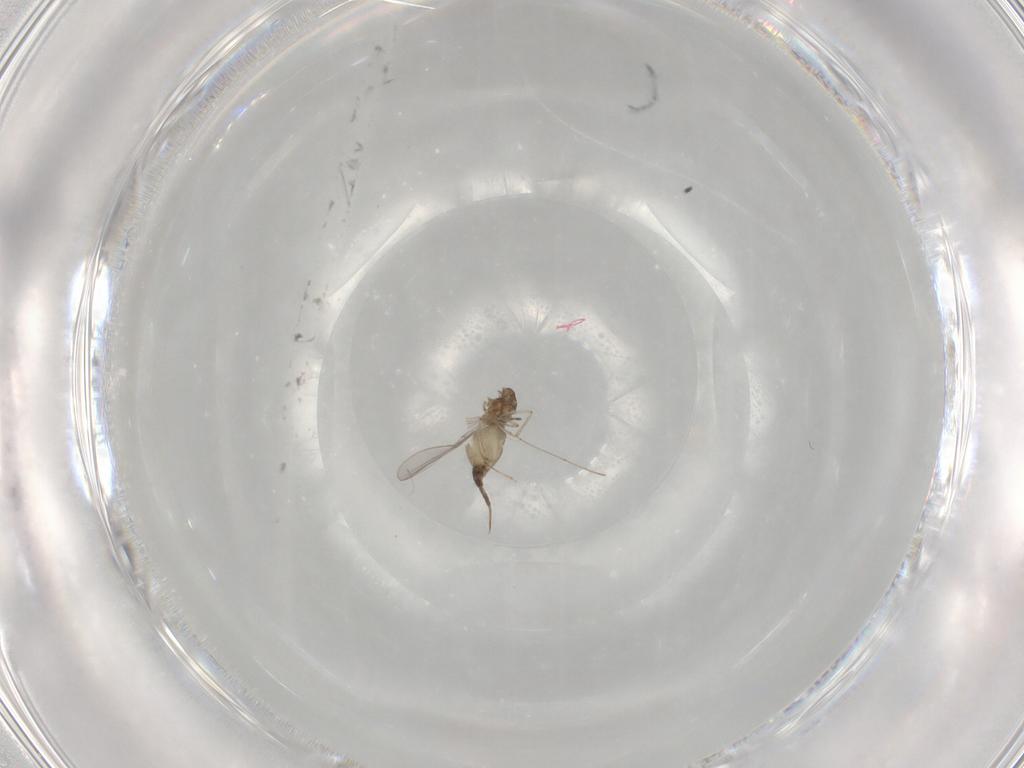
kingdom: Animalia
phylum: Arthropoda
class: Insecta
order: Diptera
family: Cecidomyiidae
